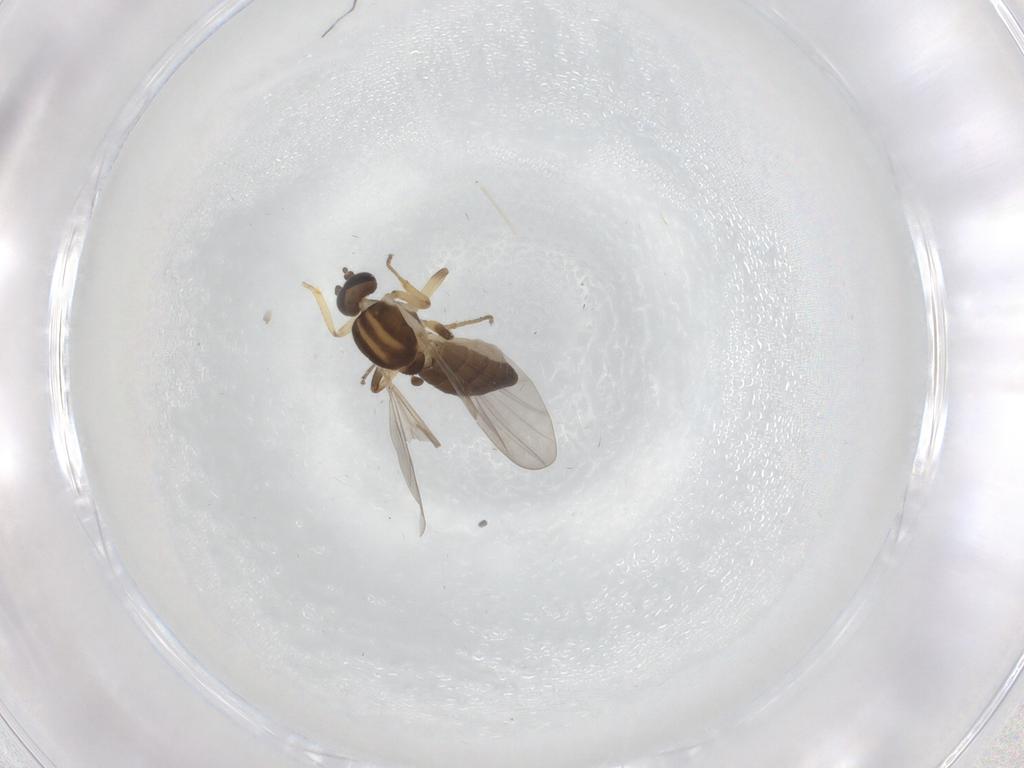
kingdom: Animalia
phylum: Arthropoda
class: Insecta
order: Diptera
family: Ceratopogonidae
